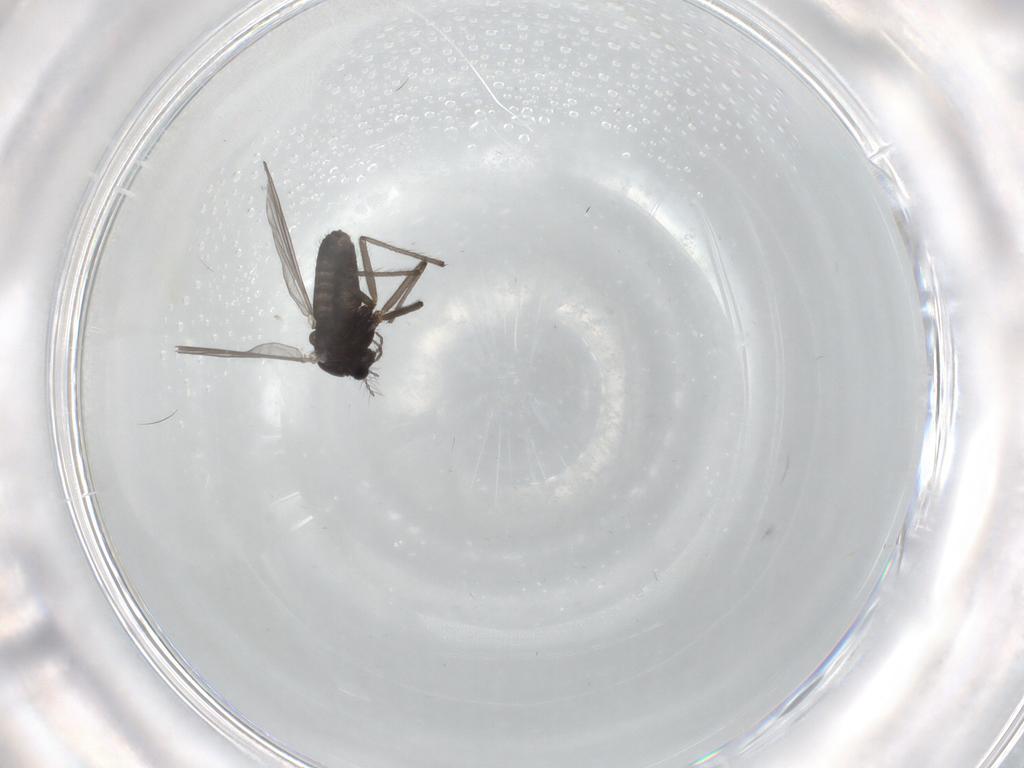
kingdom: Animalia
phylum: Arthropoda
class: Insecta
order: Diptera
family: Chironomidae
